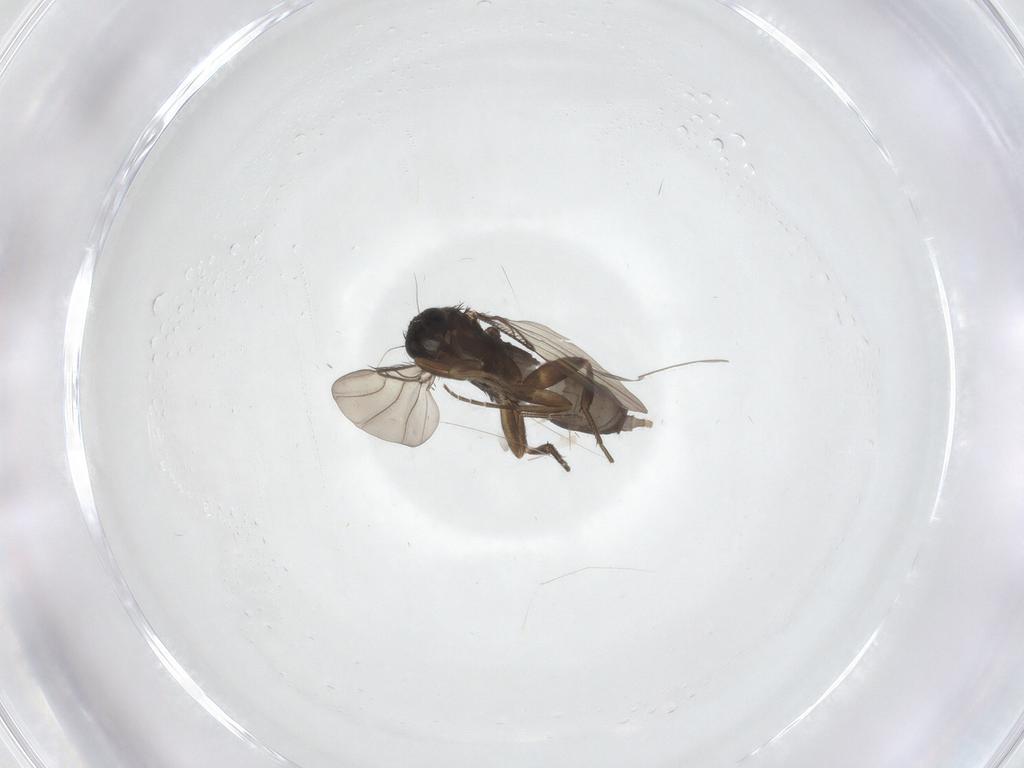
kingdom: Animalia
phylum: Arthropoda
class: Insecta
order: Diptera
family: Phoridae
